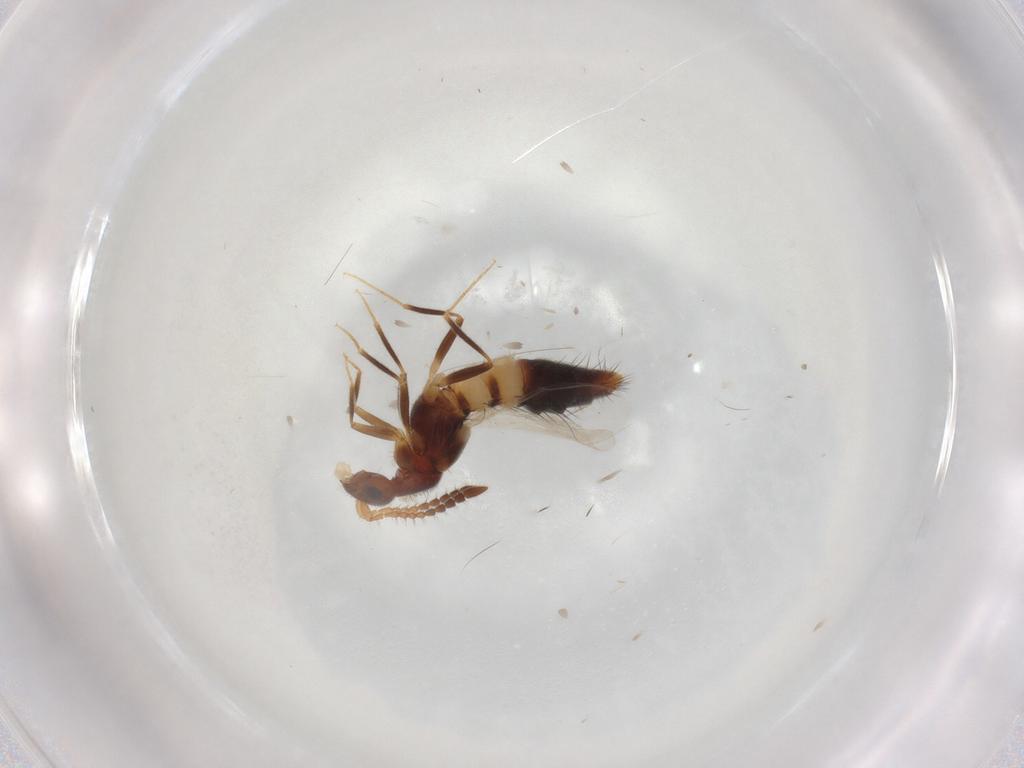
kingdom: Animalia
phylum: Arthropoda
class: Insecta
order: Coleoptera
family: Staphylinidae
